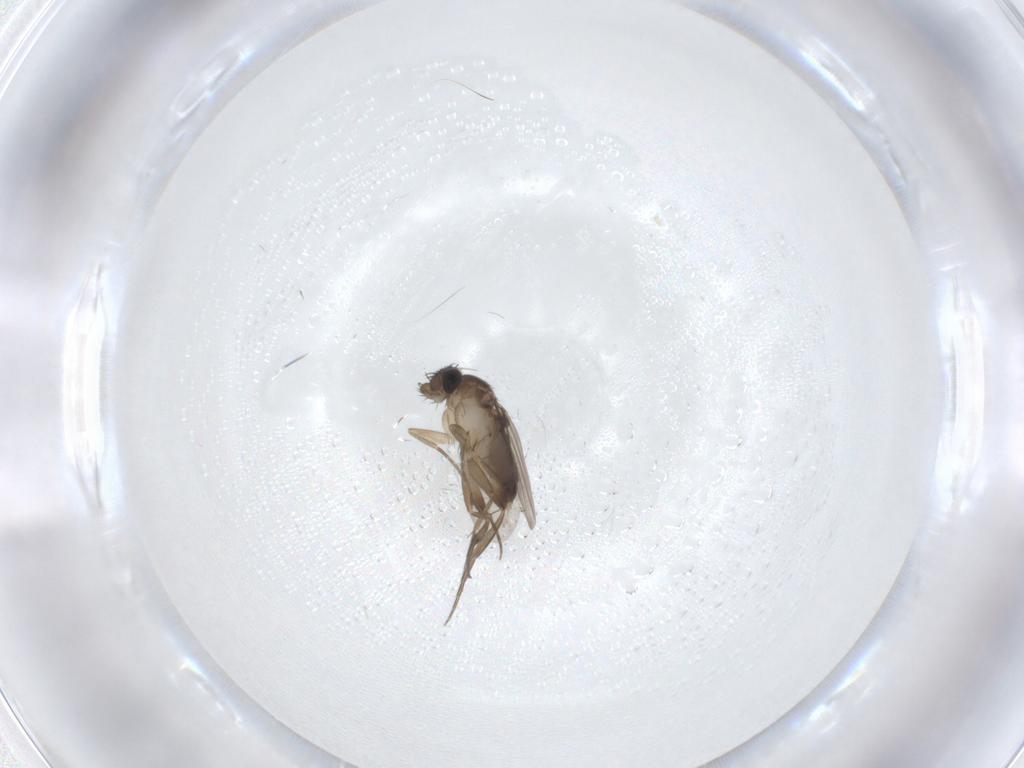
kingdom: Animalia
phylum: Arthropoda
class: Insecta
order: Diptera
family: Phoridae
